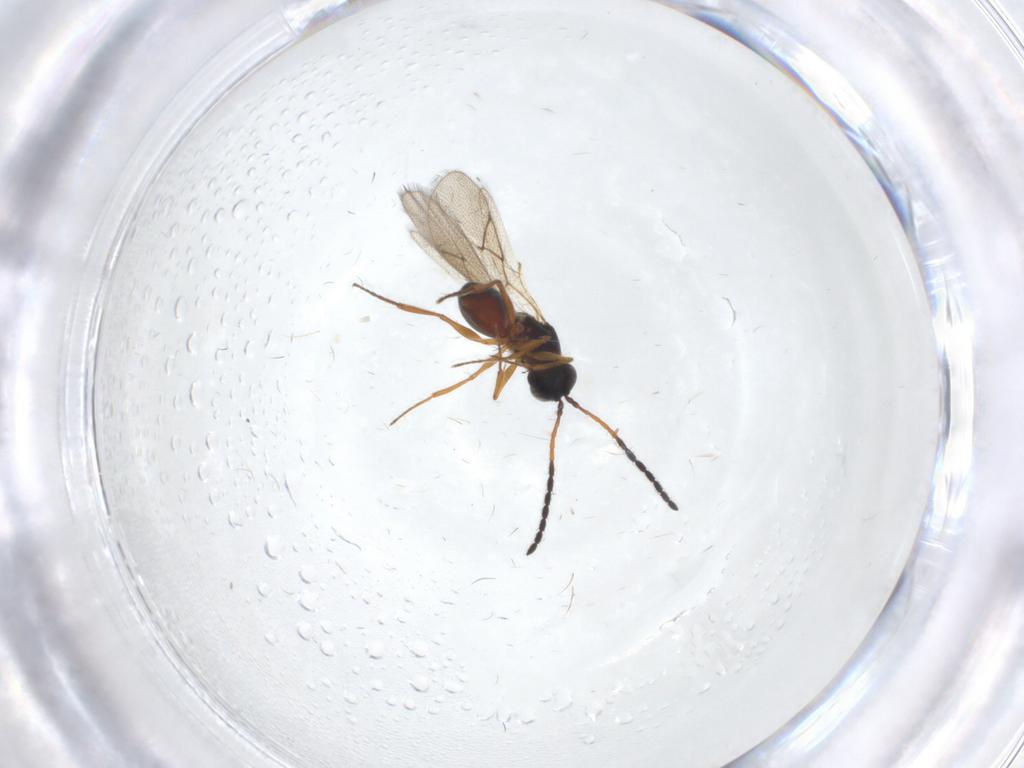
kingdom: Animalia
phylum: Arthropoda
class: Insecta
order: Hymenoptera
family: Figitidae
